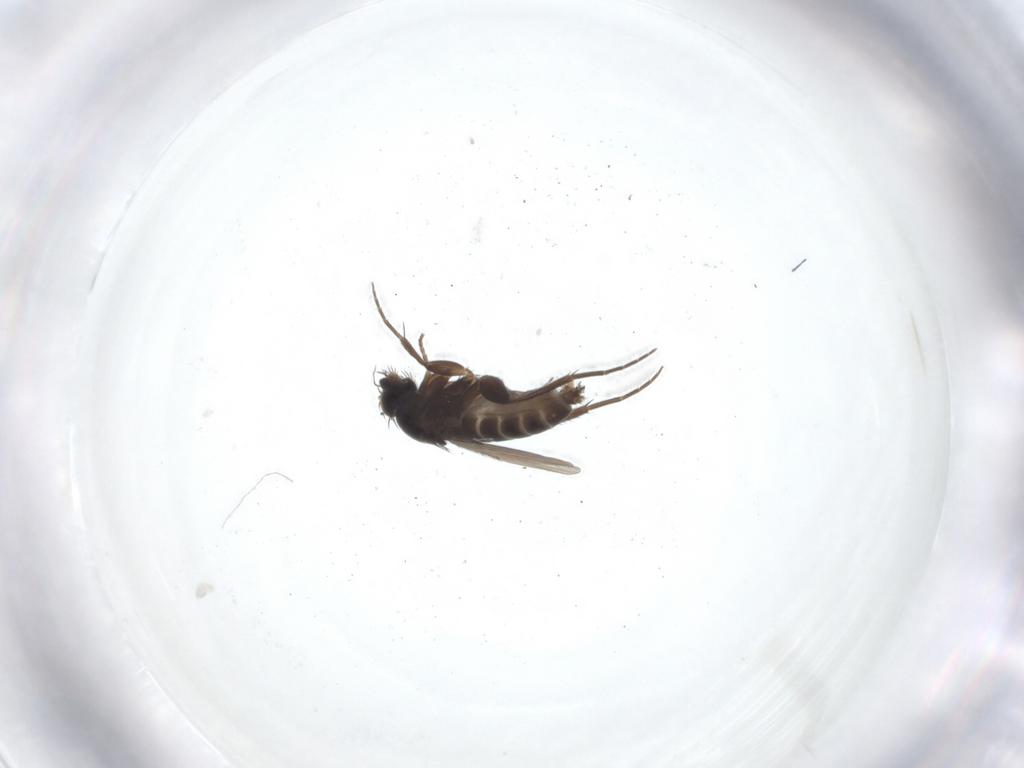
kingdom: Animalia
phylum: Arthropoda
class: Insecta
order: Diptera
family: Phoridae
